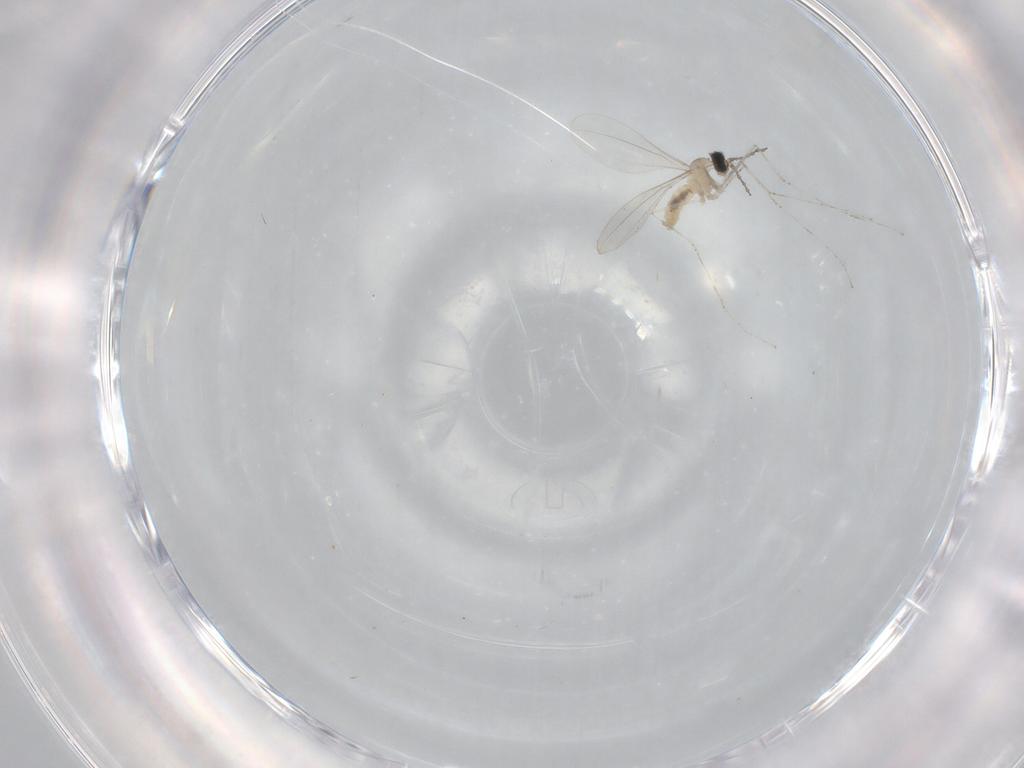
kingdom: Animalia
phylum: Arthropoda
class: Insecta
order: Diptera
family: Cecidomyiidae
